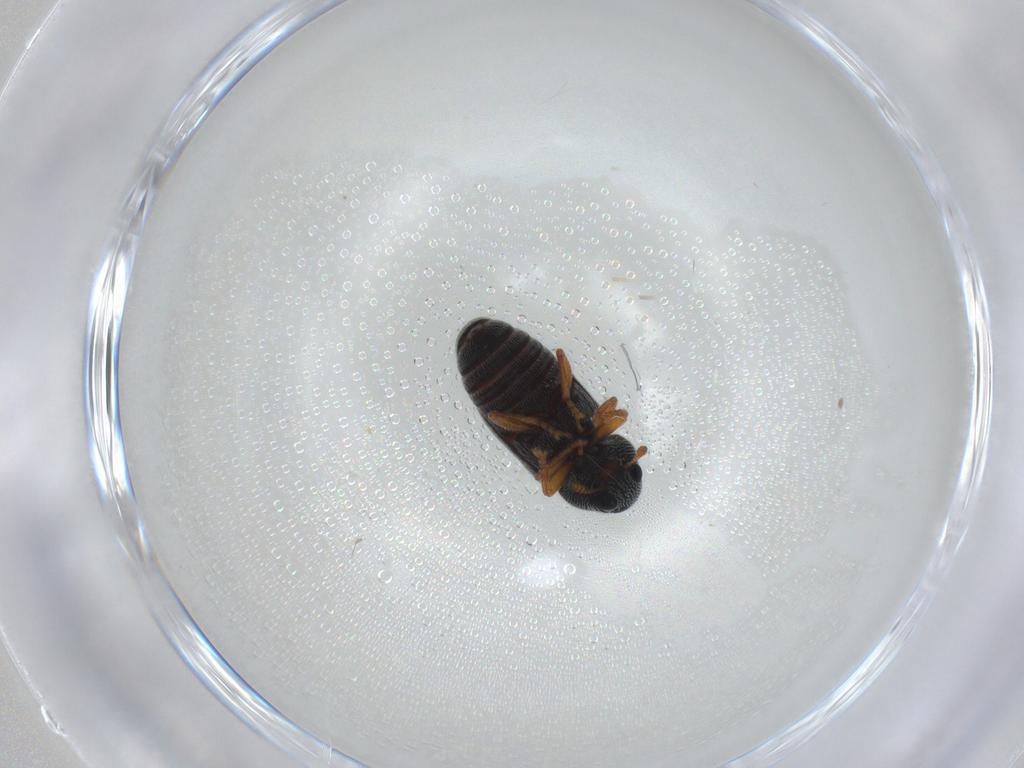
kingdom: Animalia
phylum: Arthropoda
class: Insecta
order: Coleoptera
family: Anthribidae
